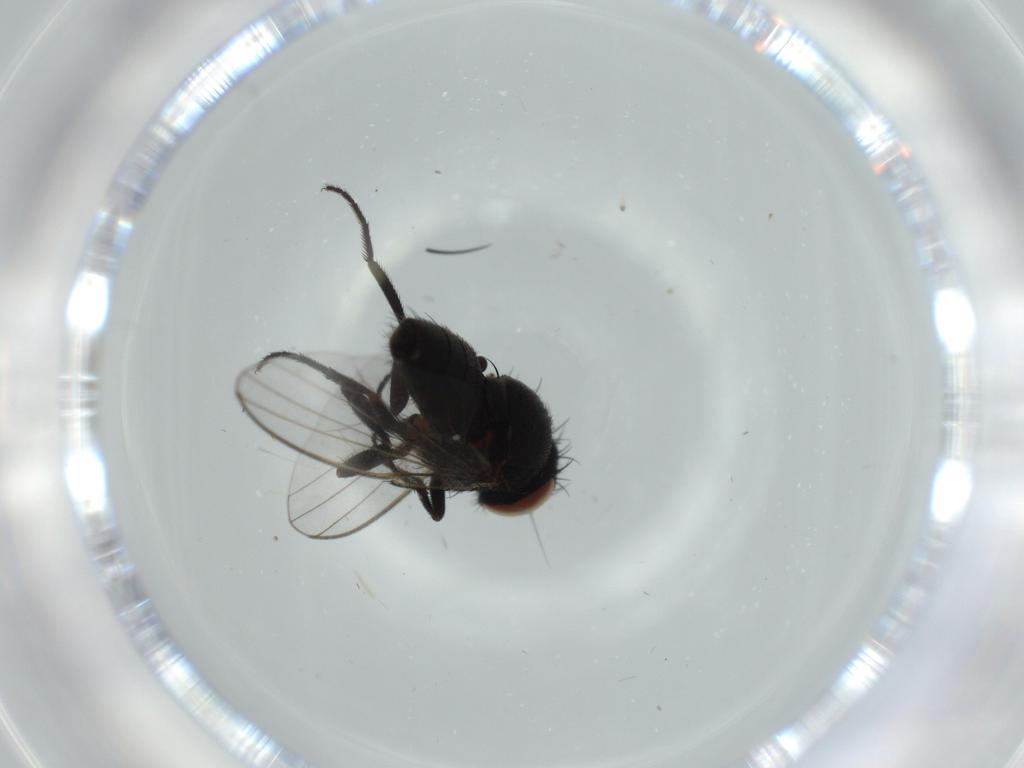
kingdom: Animalia
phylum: Arthropoda
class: Insecta
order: Diptera
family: Milichiidae
